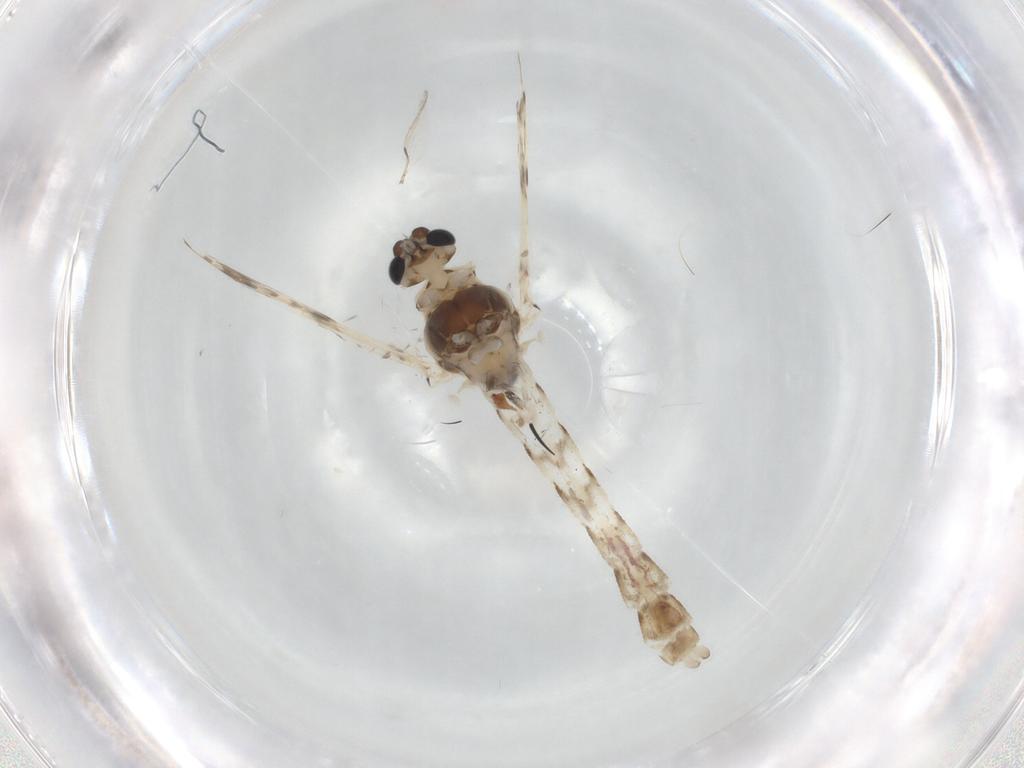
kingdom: Animalia
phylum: Arthropoda
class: Insecta
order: Diptera
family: Chironomidae
